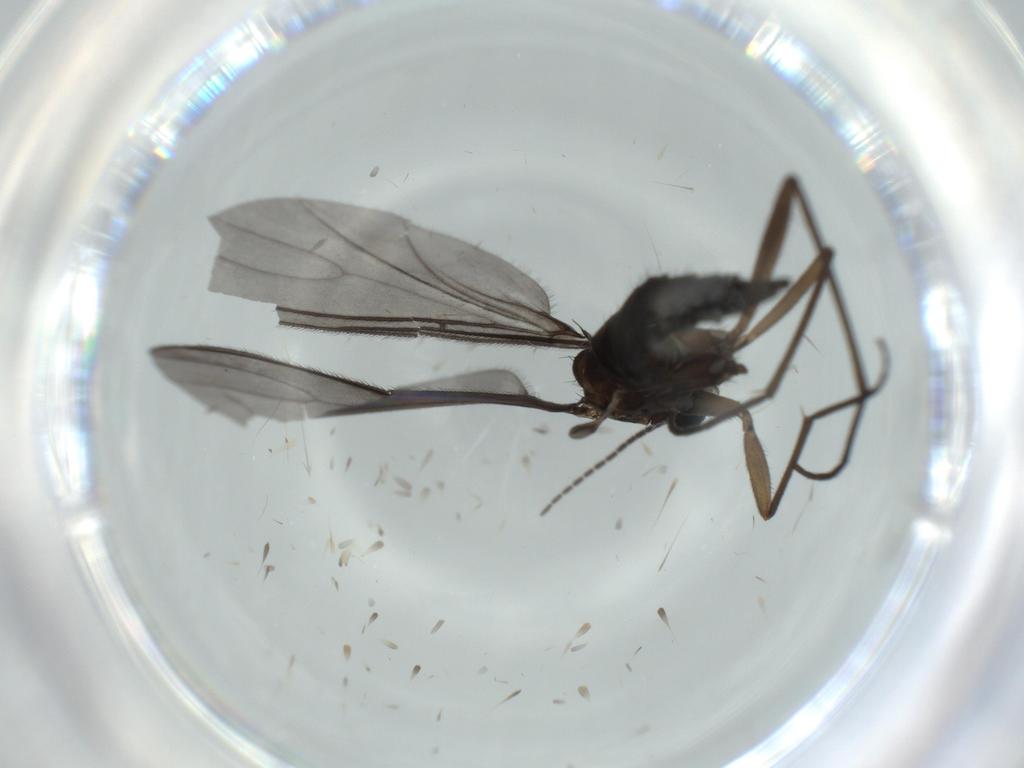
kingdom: Animalia
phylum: Arthropoda
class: Insecta
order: Diptera
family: Sciaridae
